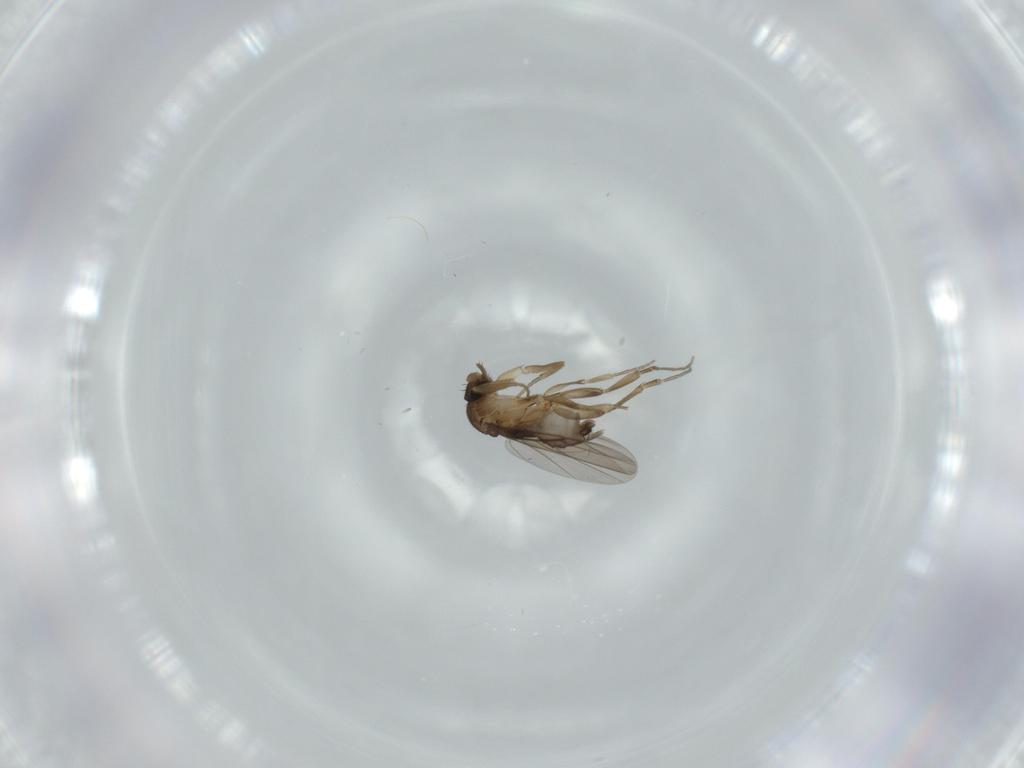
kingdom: Animalia
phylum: Arthropoda
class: Insecta
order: Diptera
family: Phoridae
